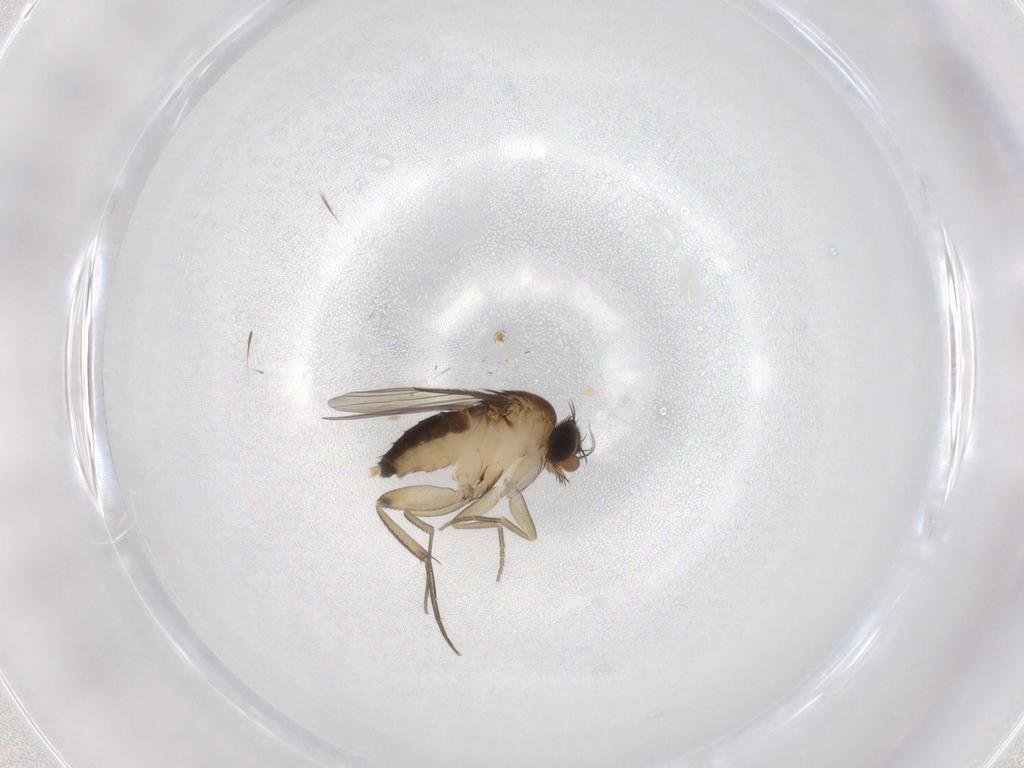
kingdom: Animalia
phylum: Arthropoda
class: Insecta
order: Diptera
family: Phoridae
